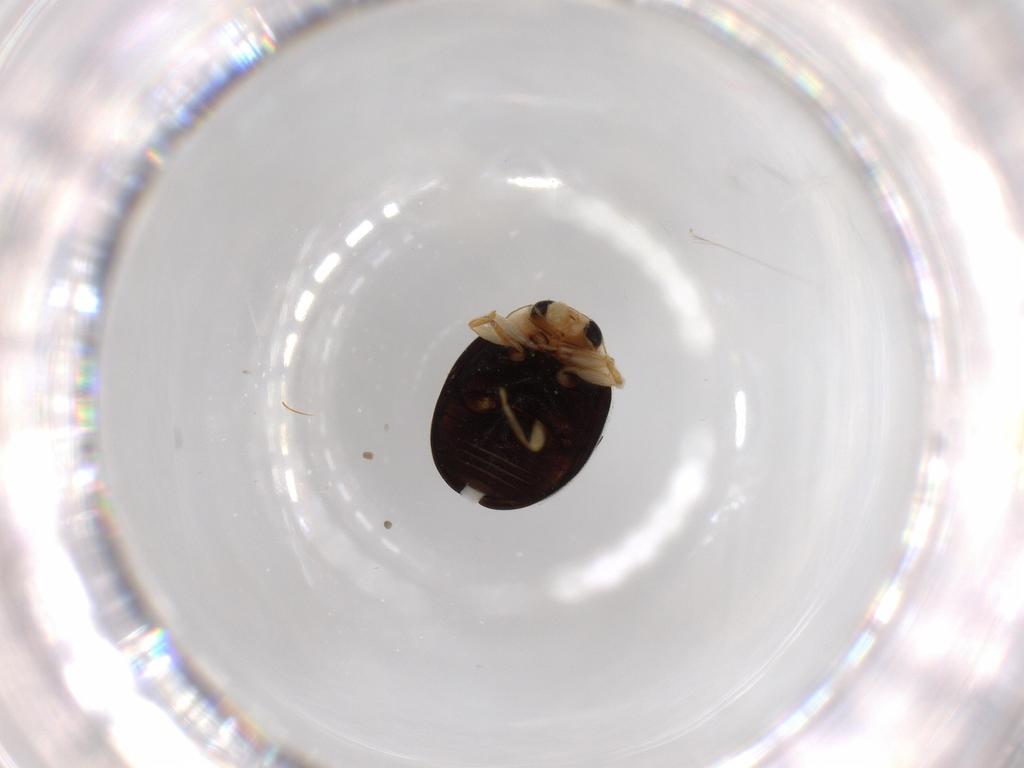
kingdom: Animalia
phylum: Arthropoda
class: Insecta
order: Coleoptera
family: Coccinellidae
